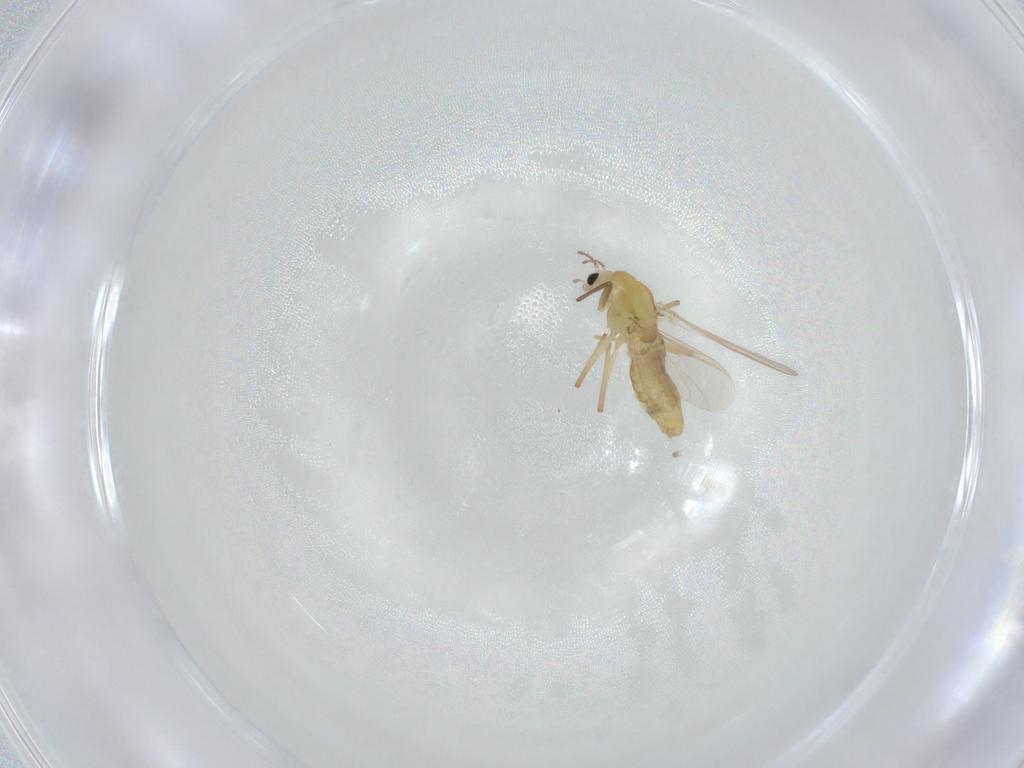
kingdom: Animalia
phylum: Arthropoda
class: Insecta
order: Diptera
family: Chironomidae
